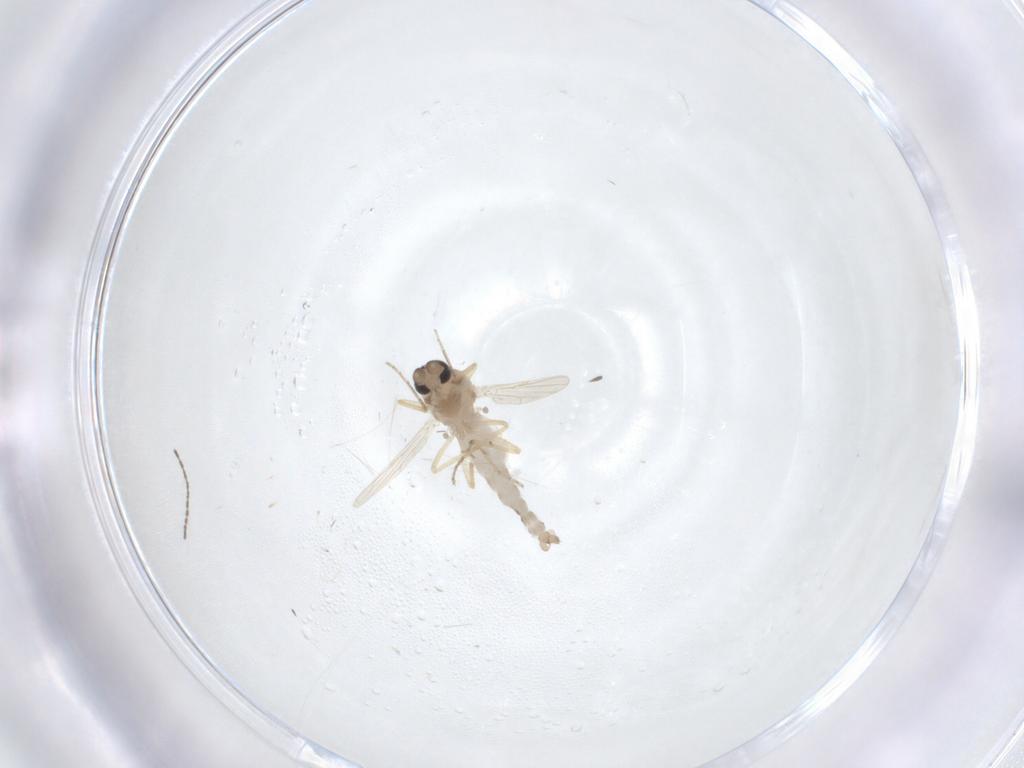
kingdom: Animalia
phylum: Arthropoda
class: Insecta
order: Diptera
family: Ceratopogonidae
